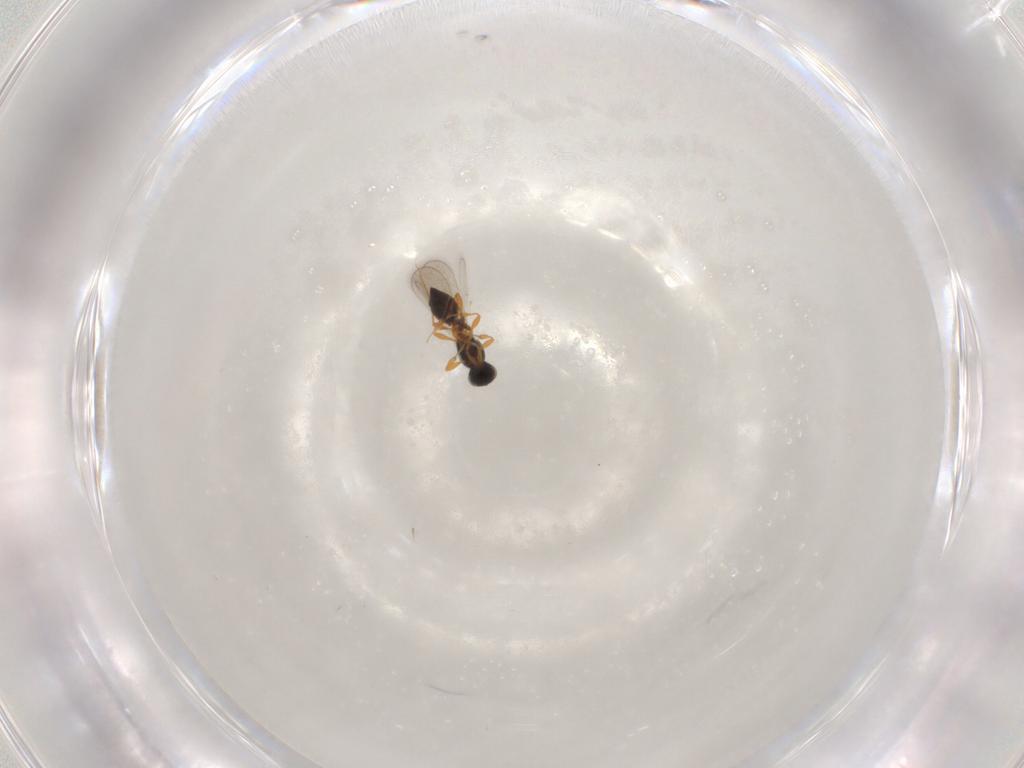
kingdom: Animalia
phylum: Arthropoda
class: Insecta
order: Hymenoptera
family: Platygastridae
